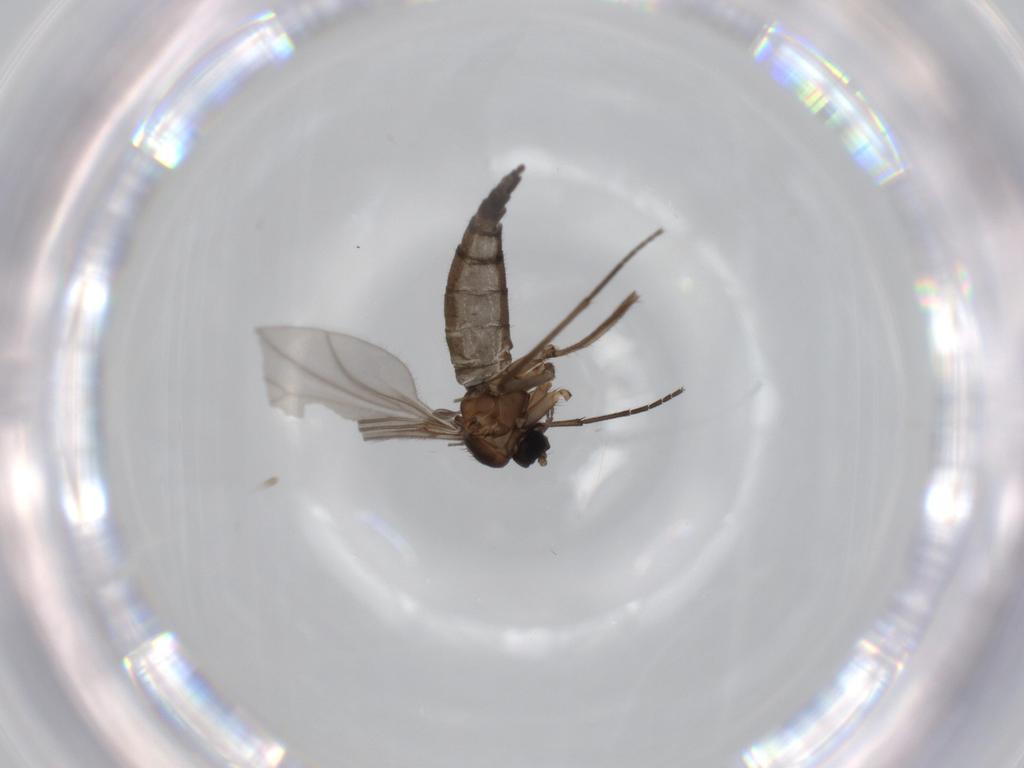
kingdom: Animalia
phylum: Arthropoda
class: Insecta
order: Diptera
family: Sciaridae
